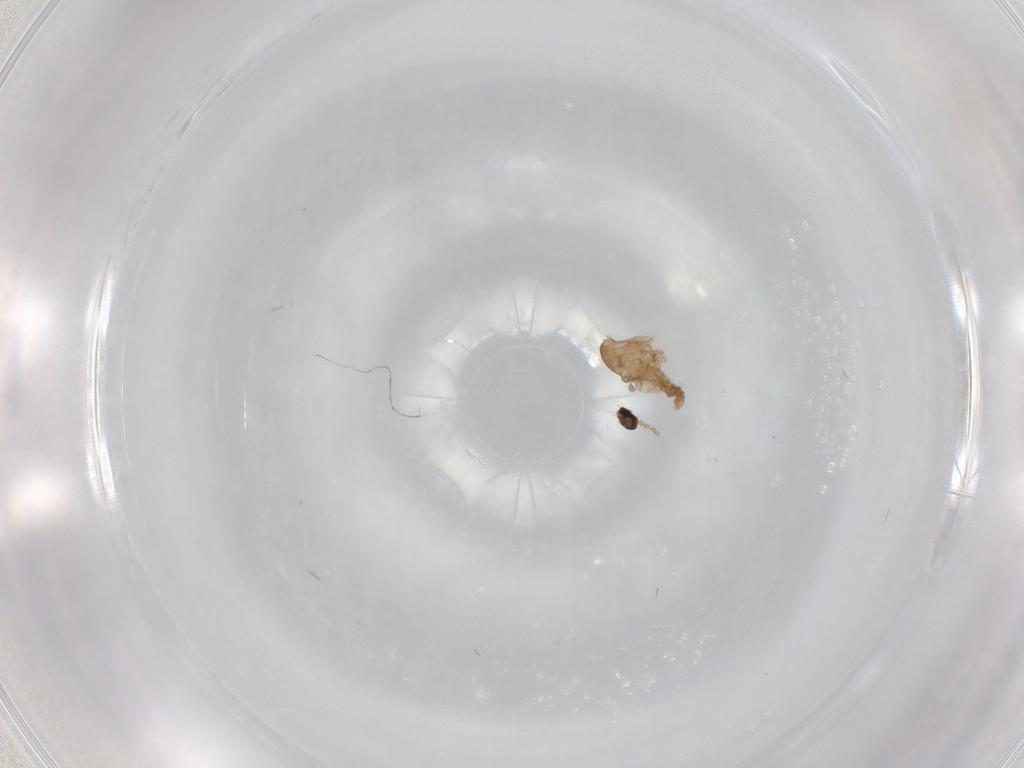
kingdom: Animalia
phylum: Arthropoda
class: Insecta
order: Diptera
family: Cecidomyiidae
